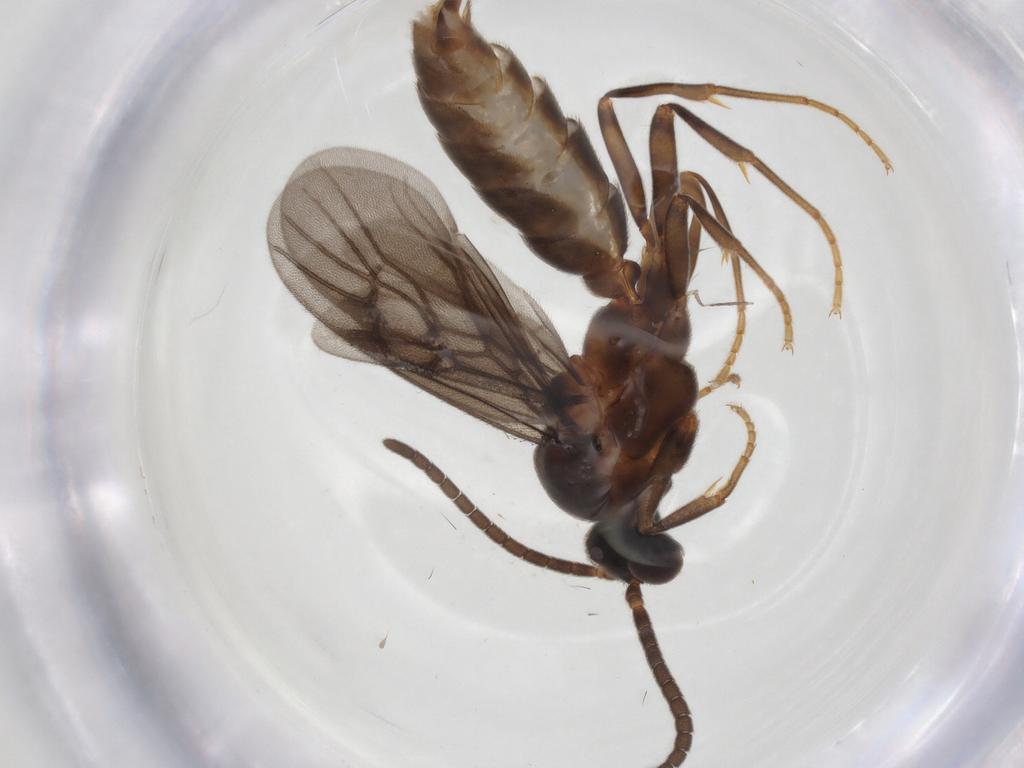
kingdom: Animalia
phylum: Arthropoda
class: Insecta
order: Hymenoptera
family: Formicidae
